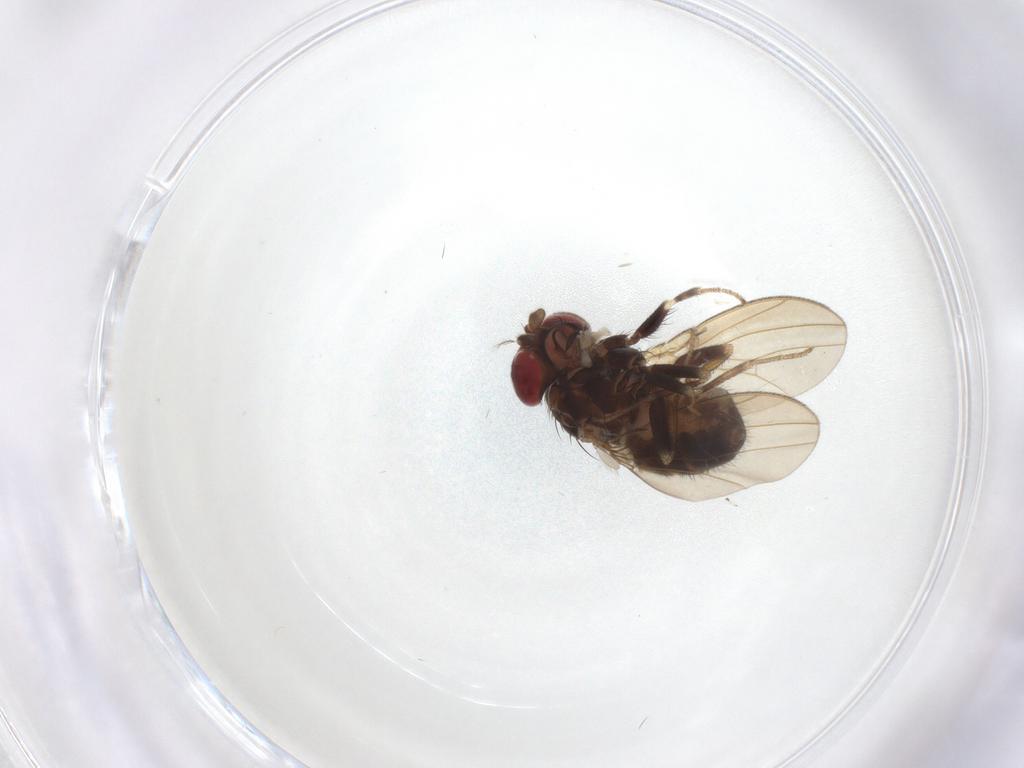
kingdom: Animalia
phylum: Arthropoda
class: Insecta
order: Diptera
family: Drosophilidae
